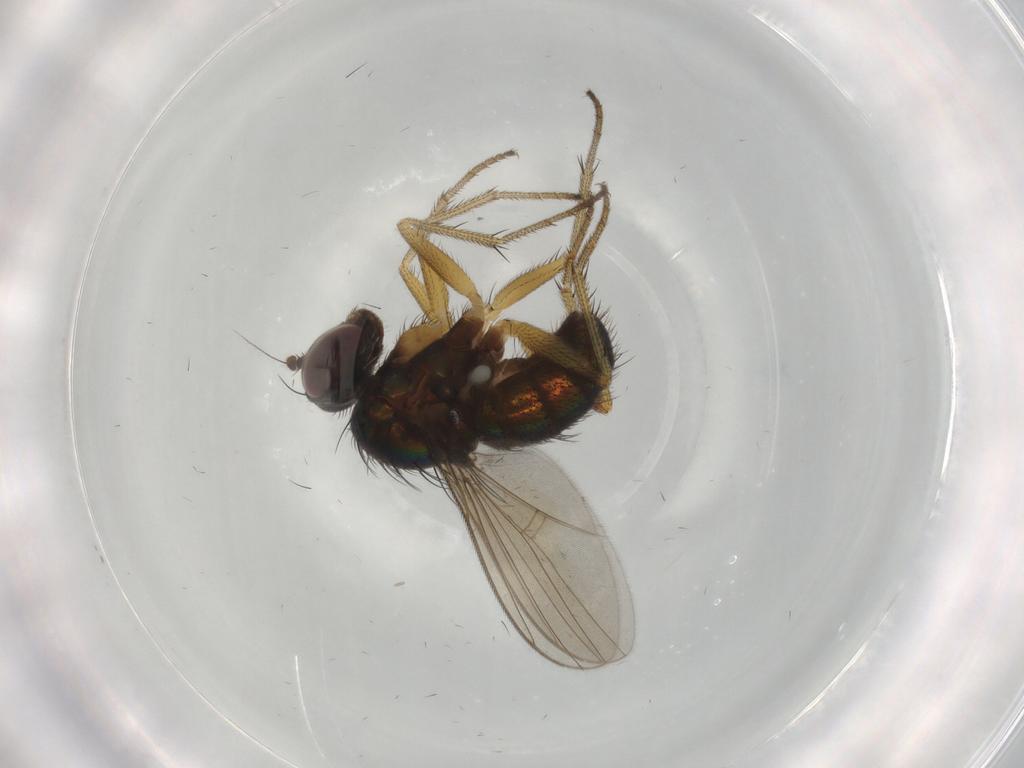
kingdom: Animalia
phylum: Arthropoda
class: Insecta
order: Diptera
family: Dolichopodidae
